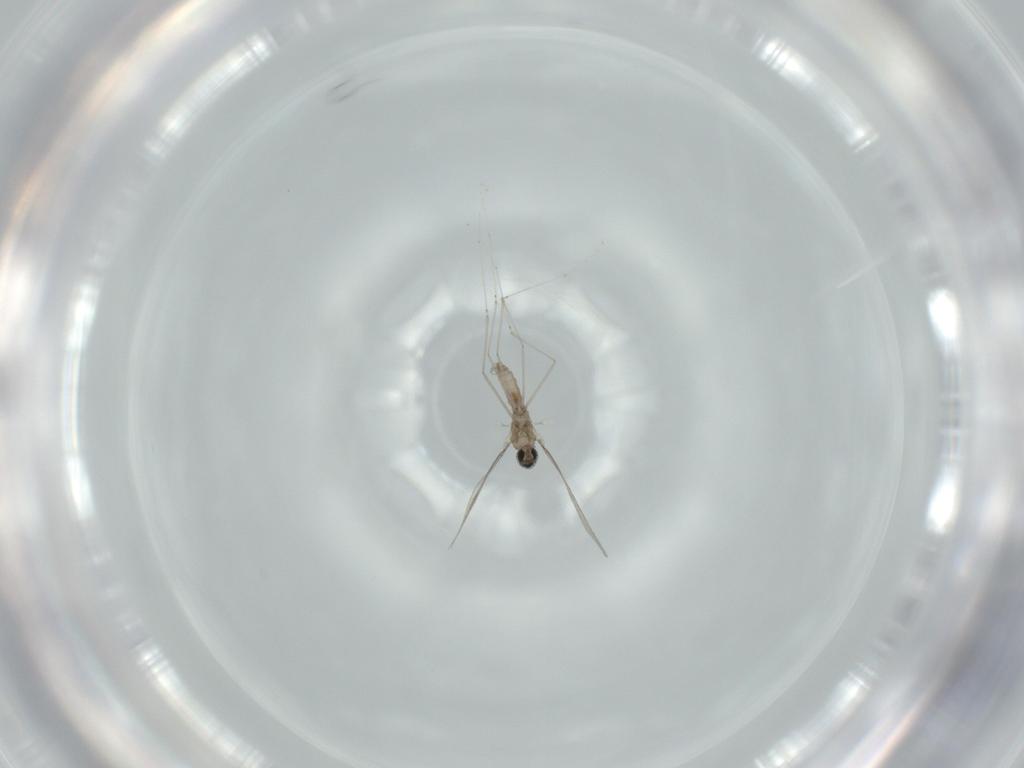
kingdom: Animalia
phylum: Arthropoda
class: Insecta
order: Diptera
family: Cecidomyiidae
